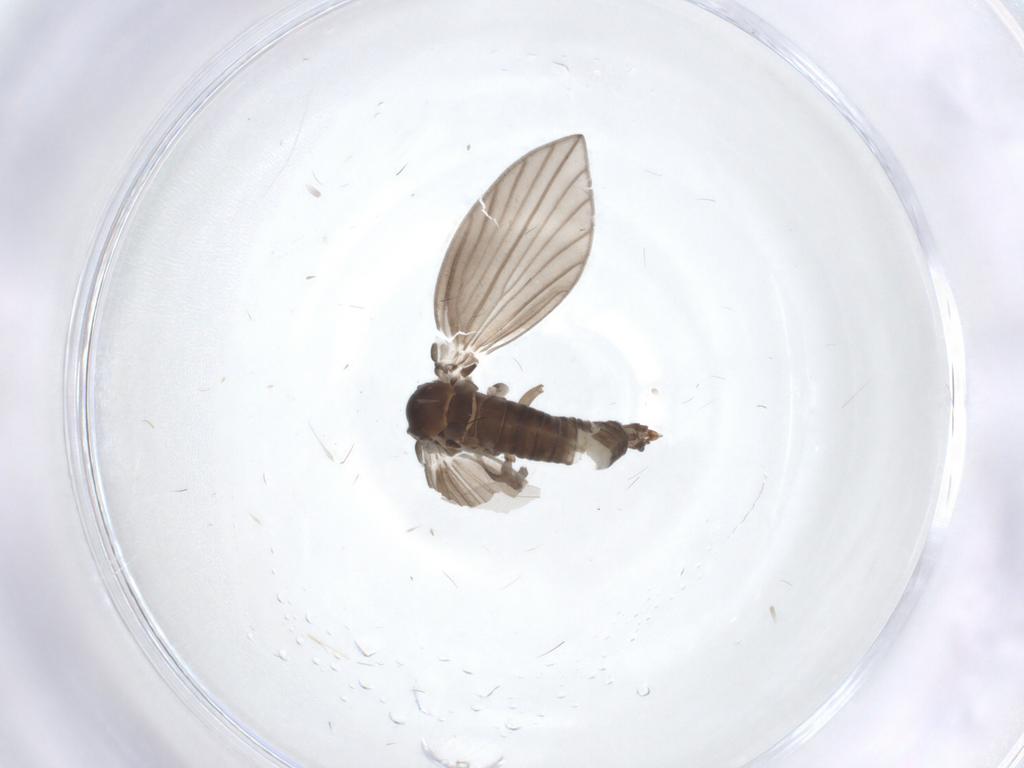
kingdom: Animalia
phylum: Arthropoda
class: Insecta
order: Diptera
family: Psychodidae
